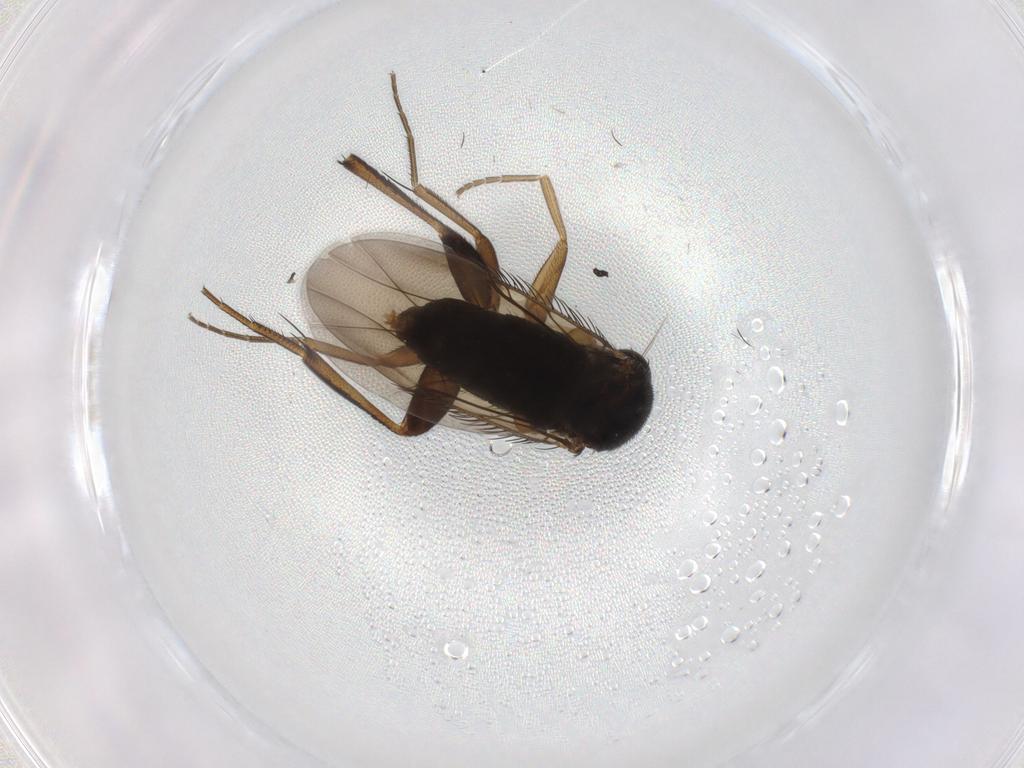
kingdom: Animalia
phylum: Arthropoda
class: Insecta
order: Diptera
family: Phoridae
